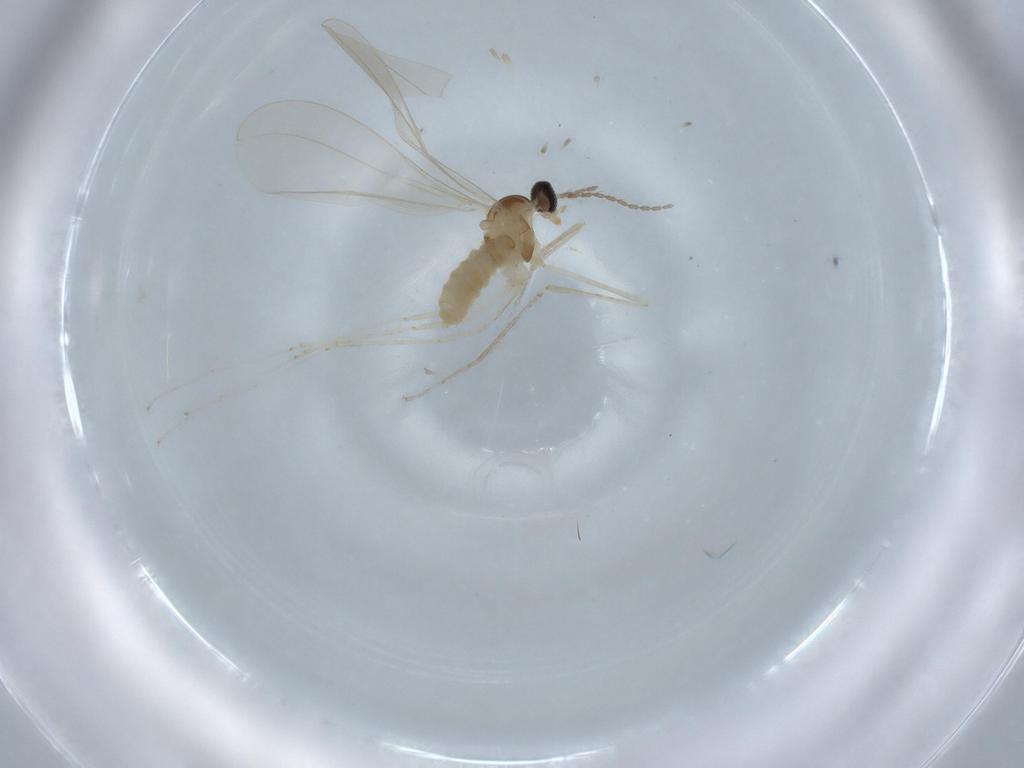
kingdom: Animalia
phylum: Arthropoda
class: Insecta
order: Diptera
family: Cecidomyiidae
